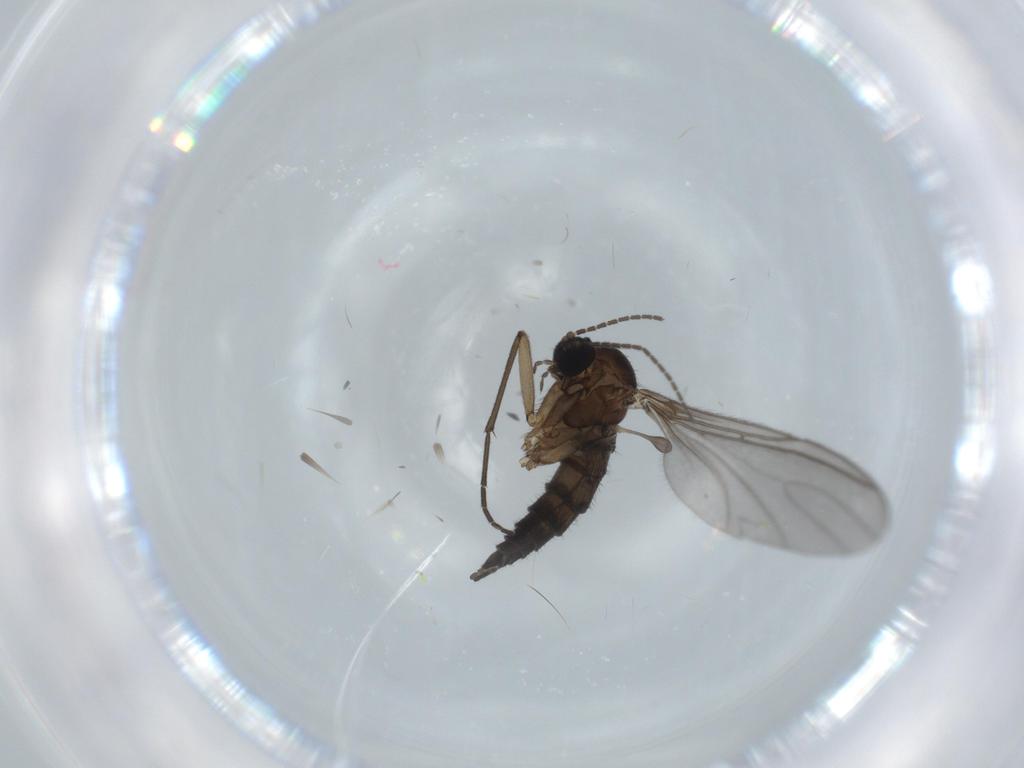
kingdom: Animalia
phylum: Arthropoda
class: Insecta
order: Diptera
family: Sciaridae
